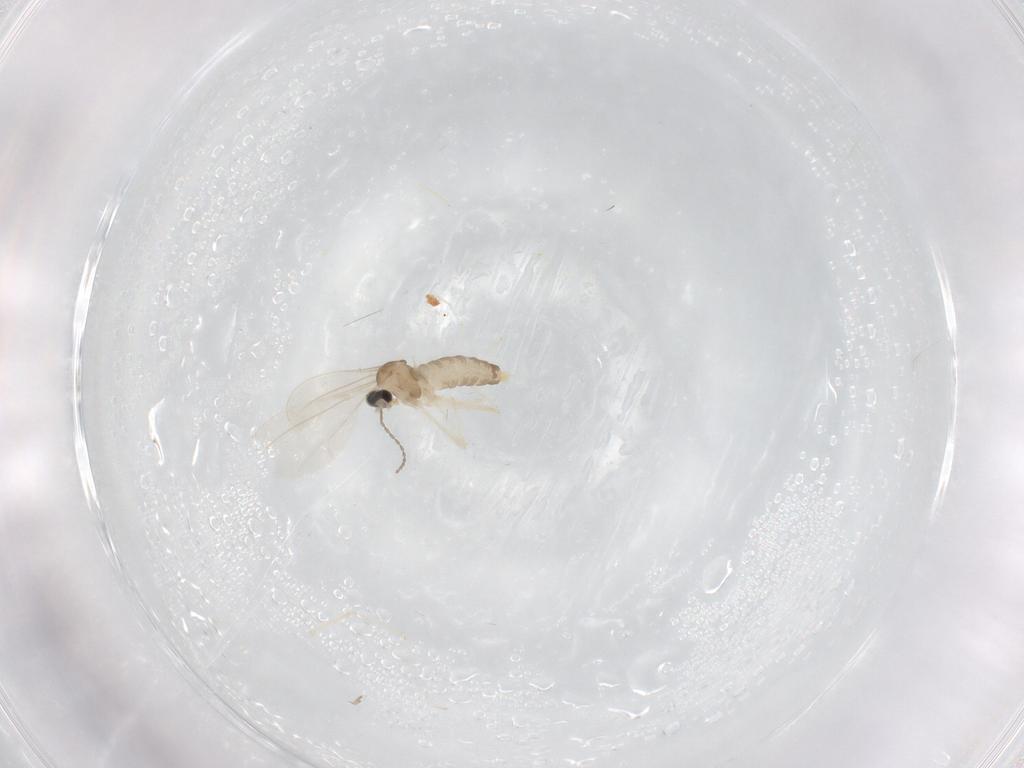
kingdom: Animalia
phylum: Arthropoda
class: Insecta
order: Diptera
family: Cecidomyiidae
